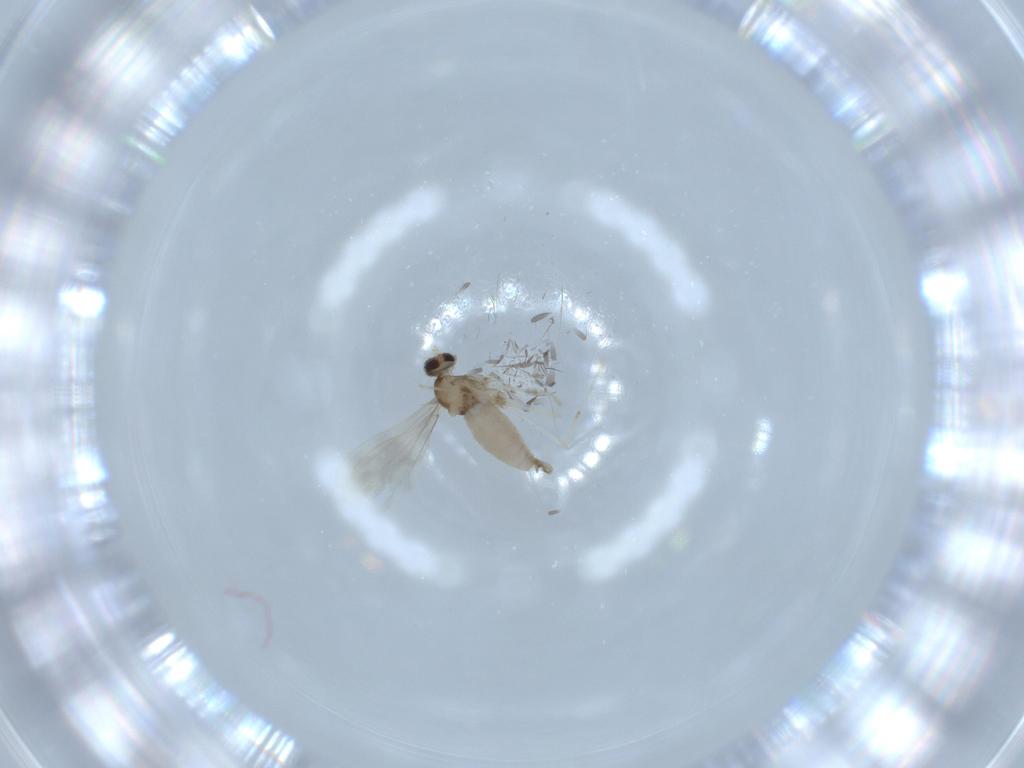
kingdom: Animalia
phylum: Arthropoda
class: Insecta
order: Diptera
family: Cecidomyiidae
